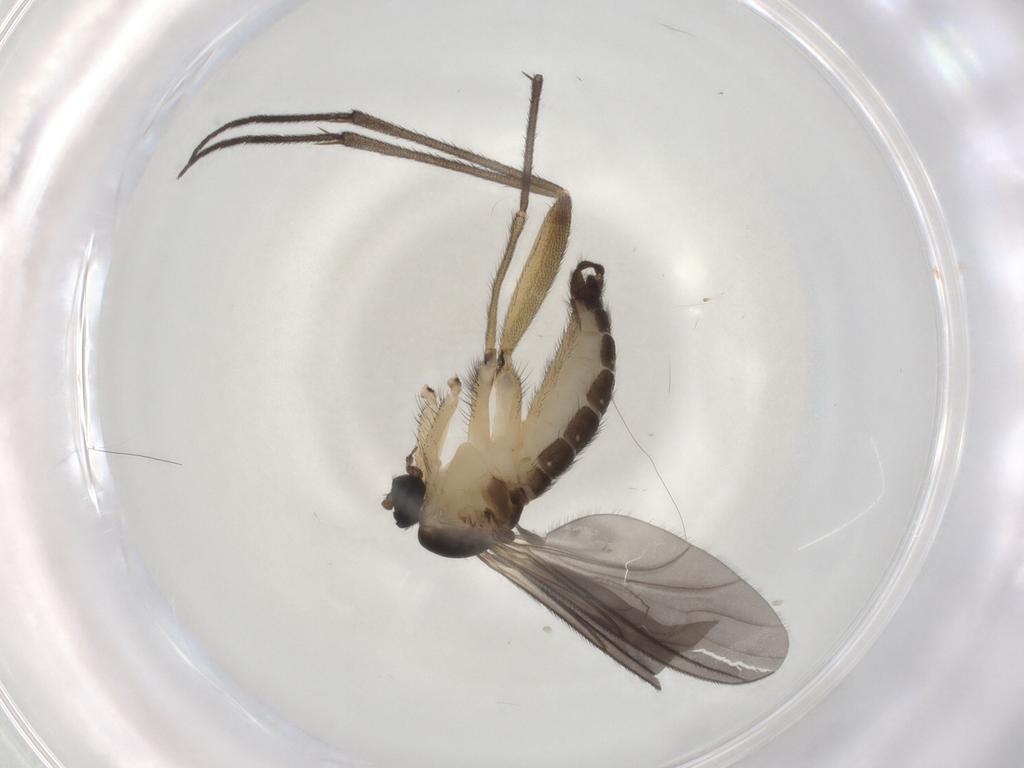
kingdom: Animalia
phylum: Arthropoda
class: Insecta
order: Diptera
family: Sciaridae
